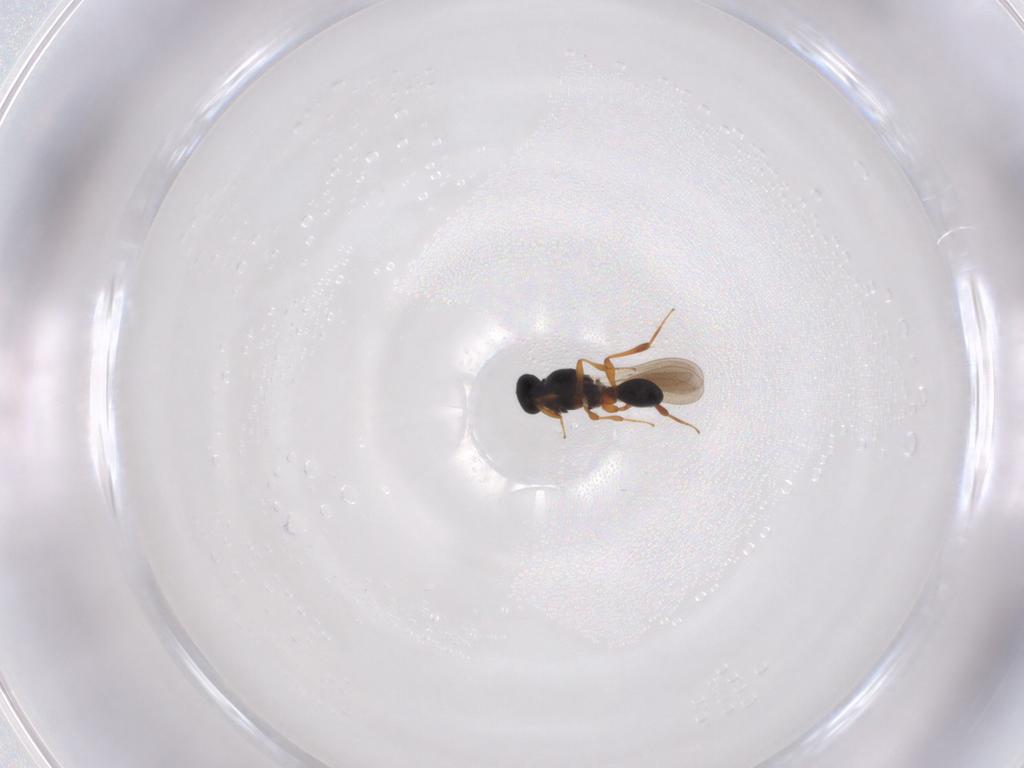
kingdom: Animalia
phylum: Arthropoda
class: Insecta
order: Hymenoptera
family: Platygastridae
